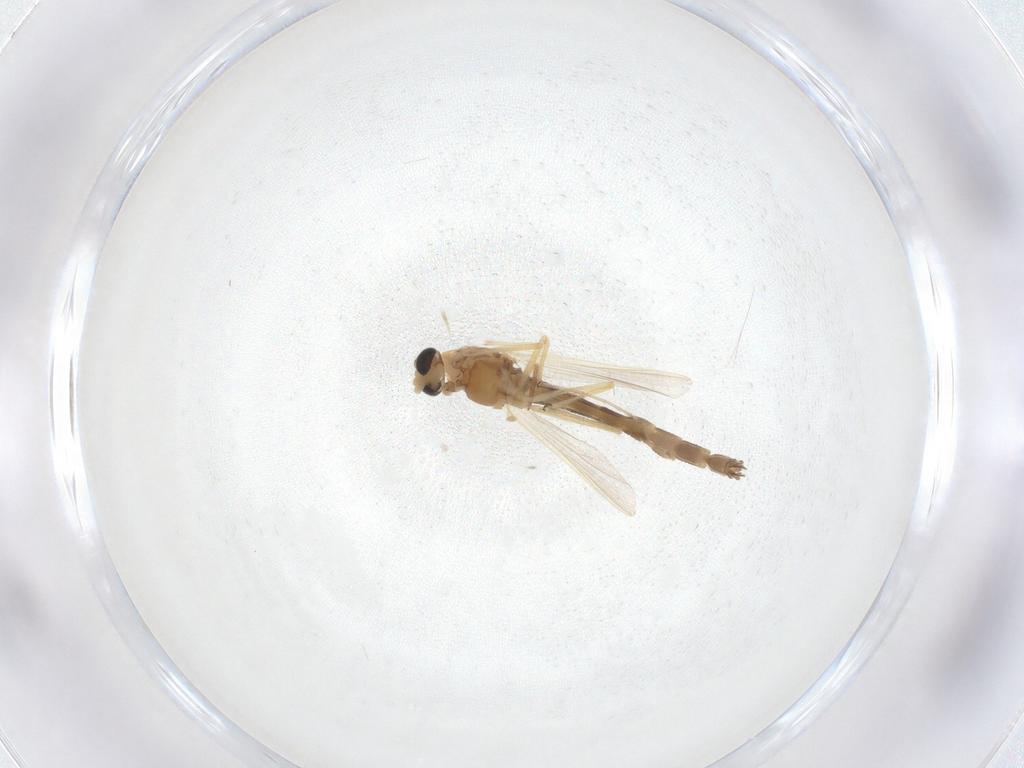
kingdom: Animalia
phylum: Arthropoda
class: Insecta
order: Diptera
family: Chironomidae
